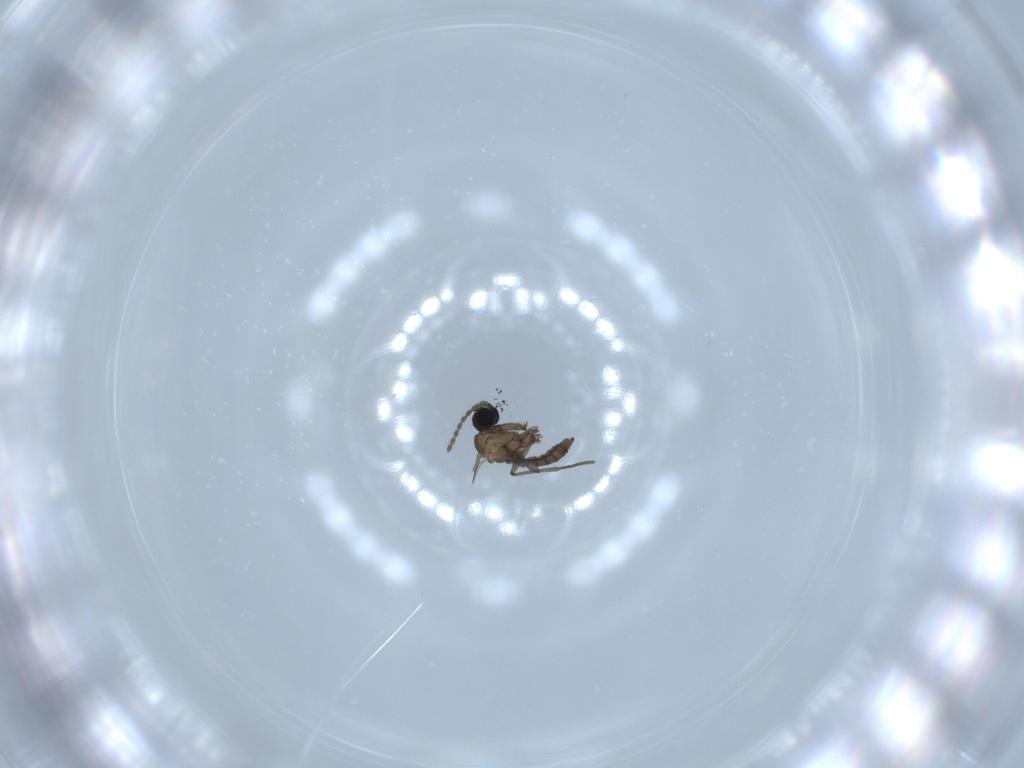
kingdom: Animalia
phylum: Arthropoda
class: Insecta
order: Diptera
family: Sciaridae
